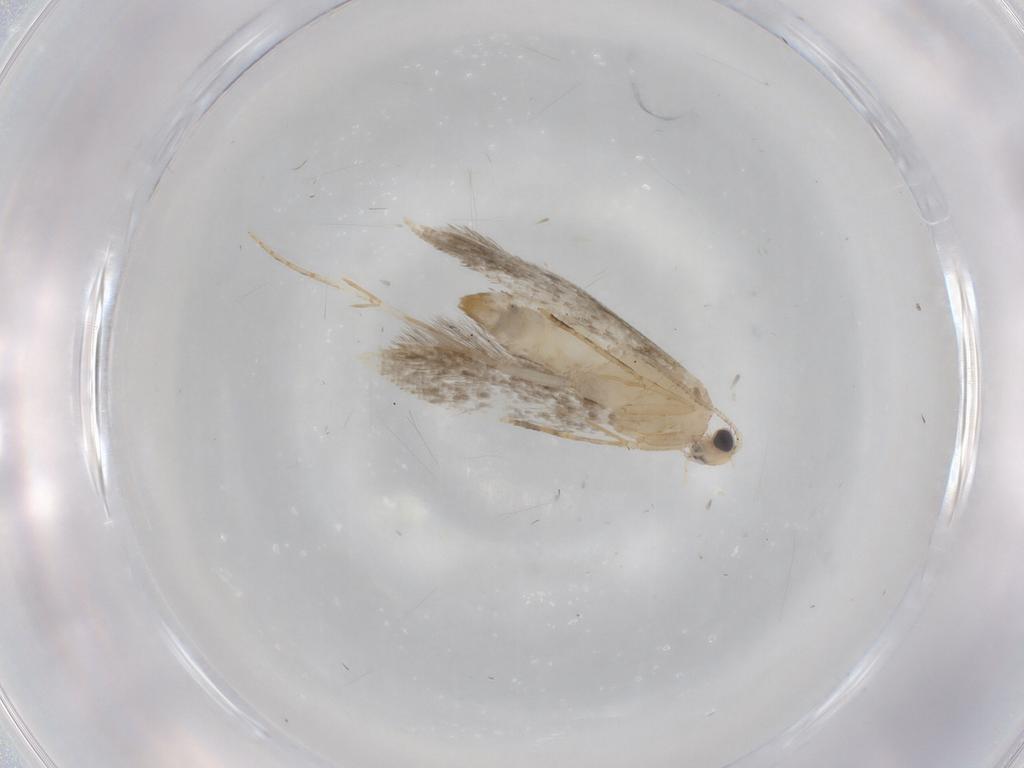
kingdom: Animalia
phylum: Arthropoda
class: Insecta
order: Lepidoptera
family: Tineidae
